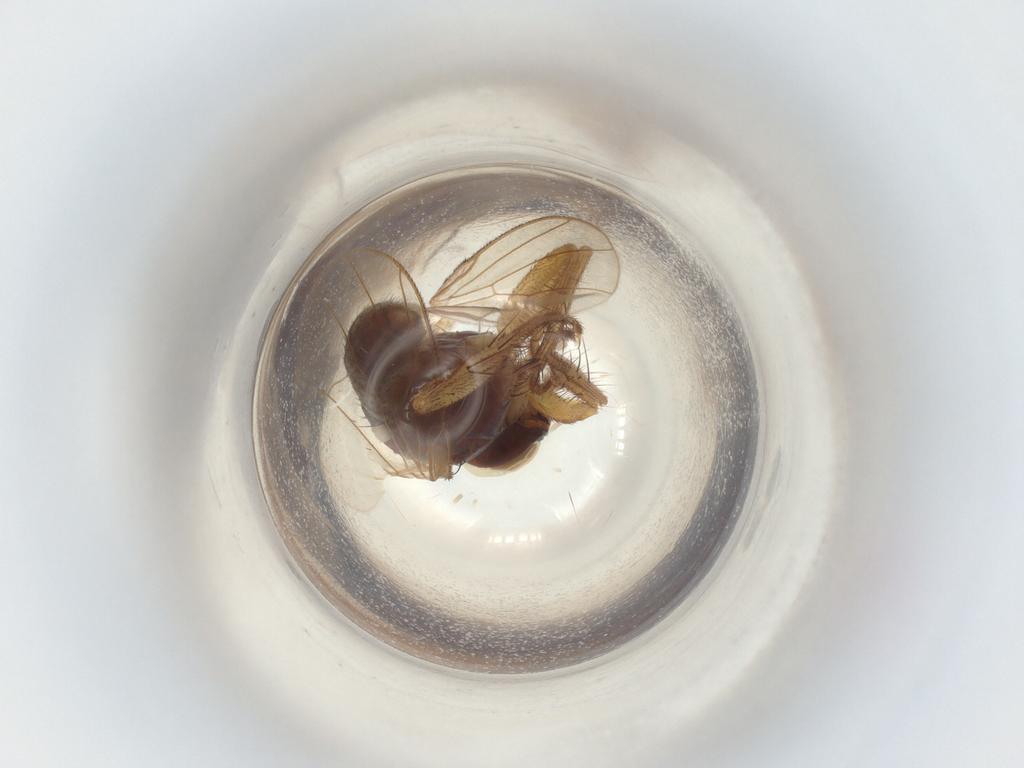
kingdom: Animalia
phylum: Arthropoda
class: Insecta
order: Diptera
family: Muscidae
